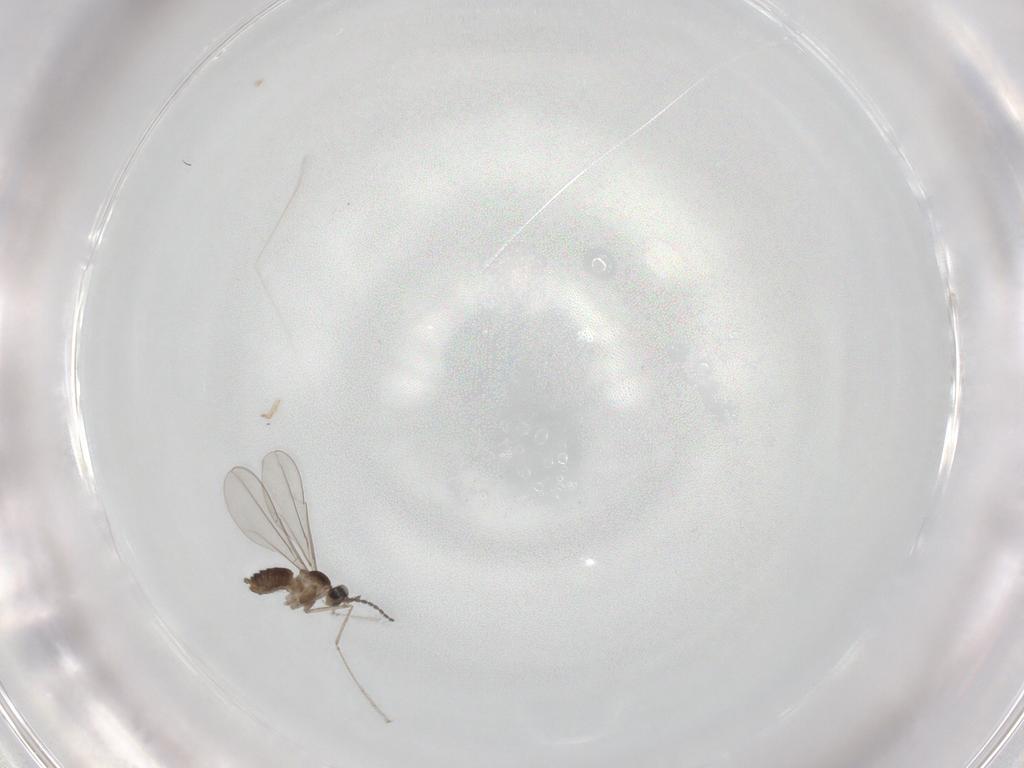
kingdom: Animalia
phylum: Arthropoda
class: Insecta
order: Diptera
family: Cecidomyiidae
